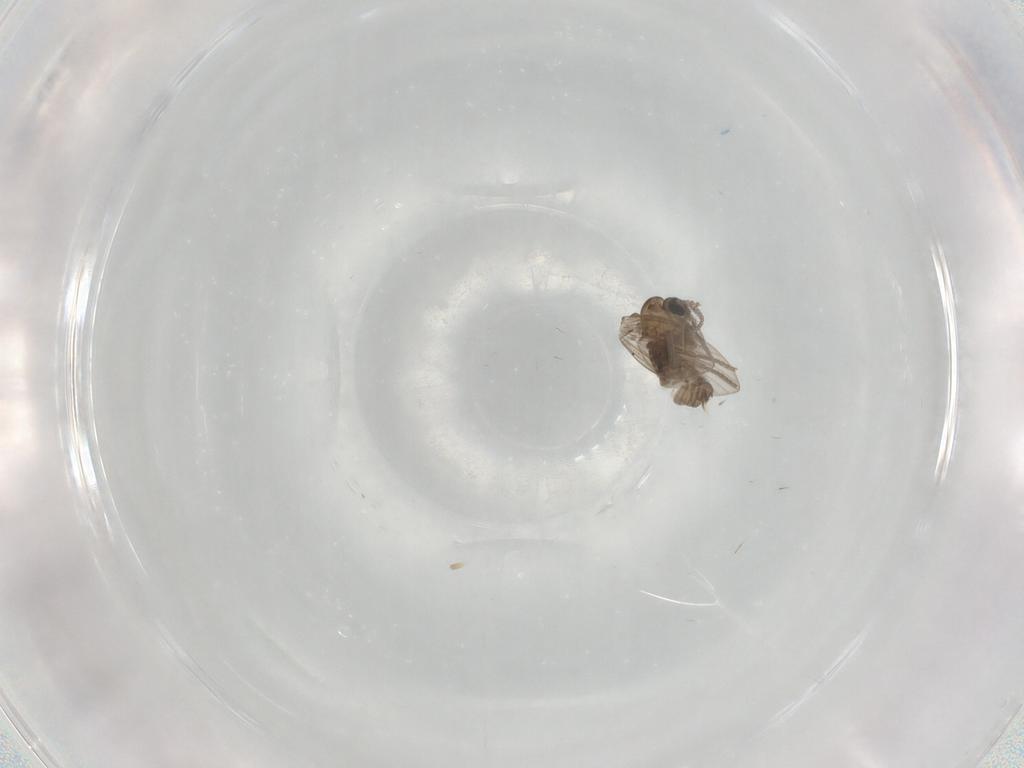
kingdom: Animalia
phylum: Arthropoda
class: Insecta
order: Diptera
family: Psychodidae
